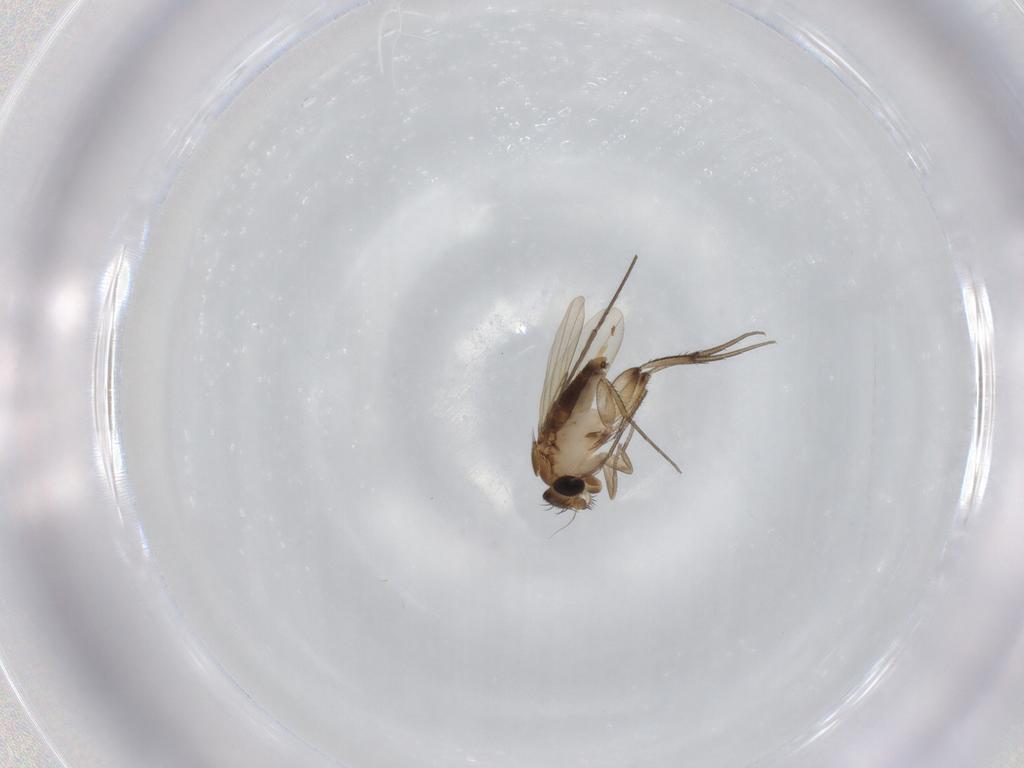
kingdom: Animalia
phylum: Arthropoda
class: Insecta
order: Diptera
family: Phoridae
